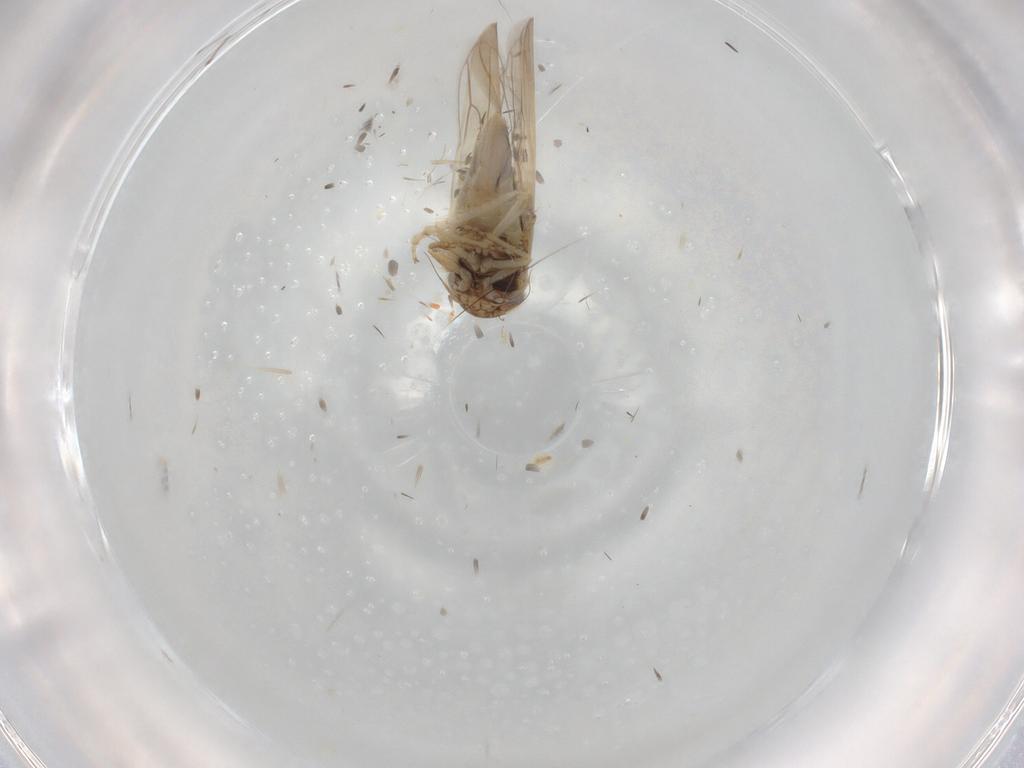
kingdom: Animalia
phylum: Arthropoda
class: Insecta
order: Hemiptera
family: Cicadellidae
